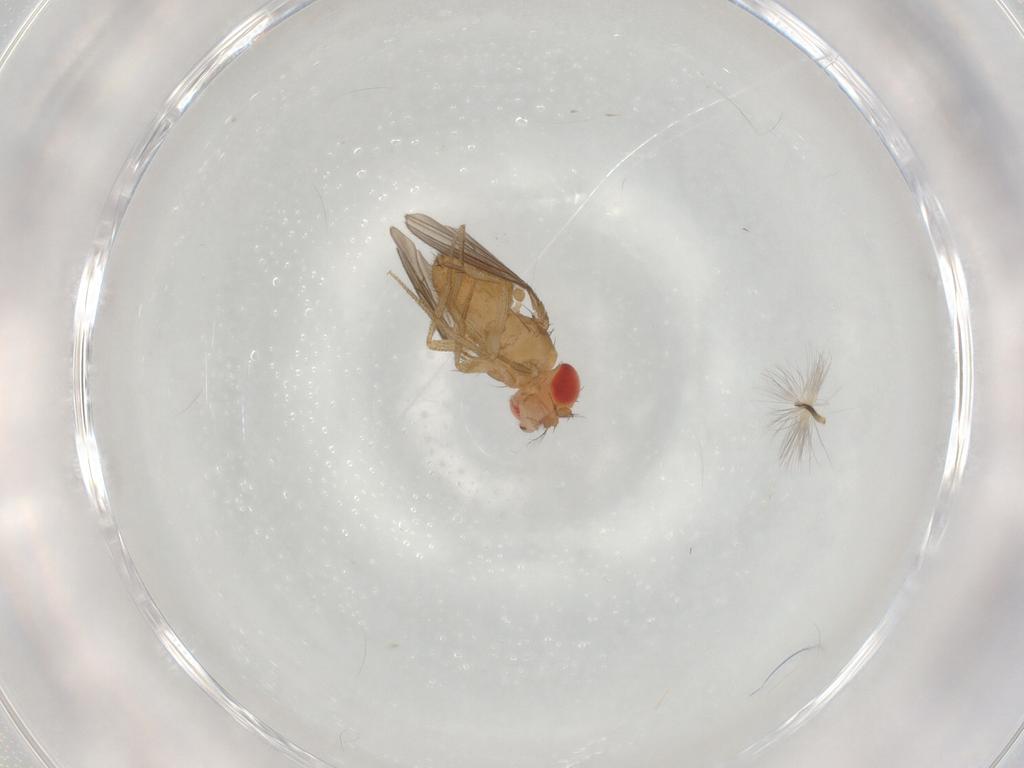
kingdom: Animalia
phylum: Arthropoda
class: Insecta
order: Diptera
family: Drosophilidae
